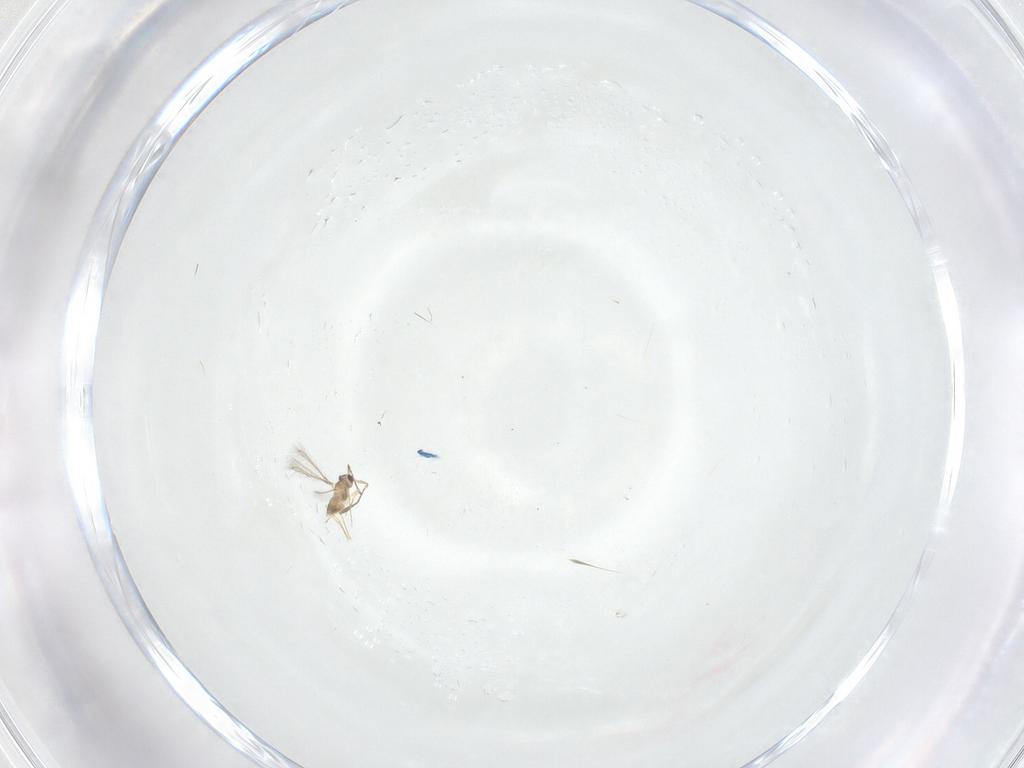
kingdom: Animalia
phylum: Arthropoda
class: Insecta
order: Hymenoptera
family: Mymaridae
